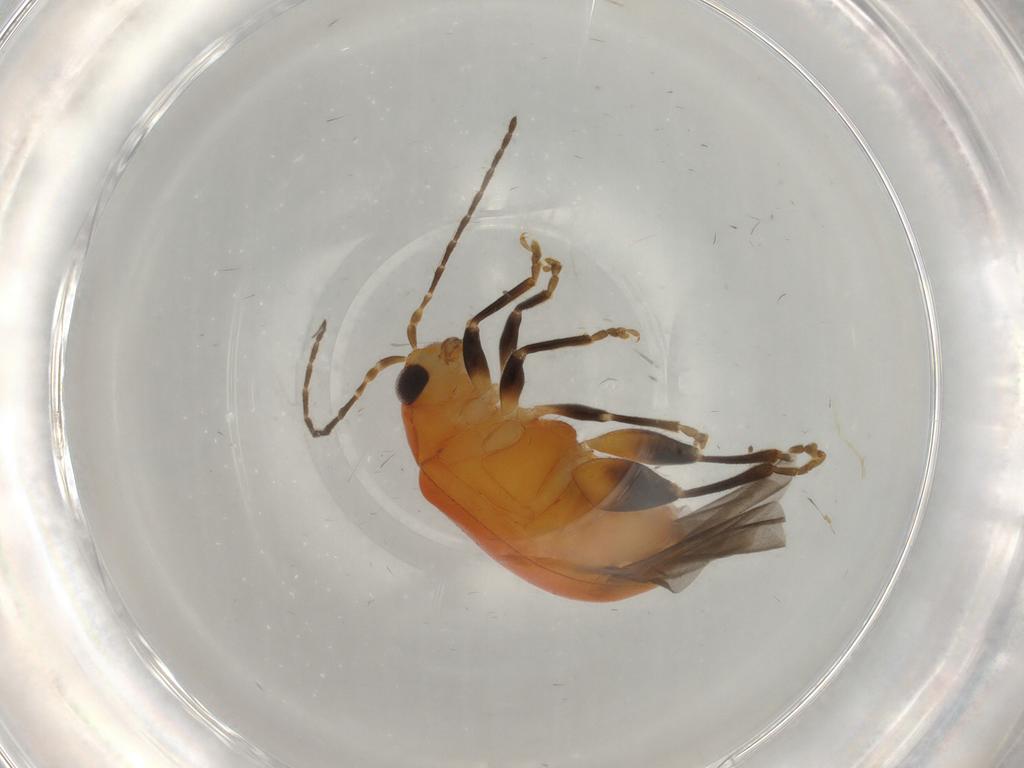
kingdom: Animalia
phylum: Arthropoda
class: Insecta
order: Coleoptera
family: Chrysomelidae
